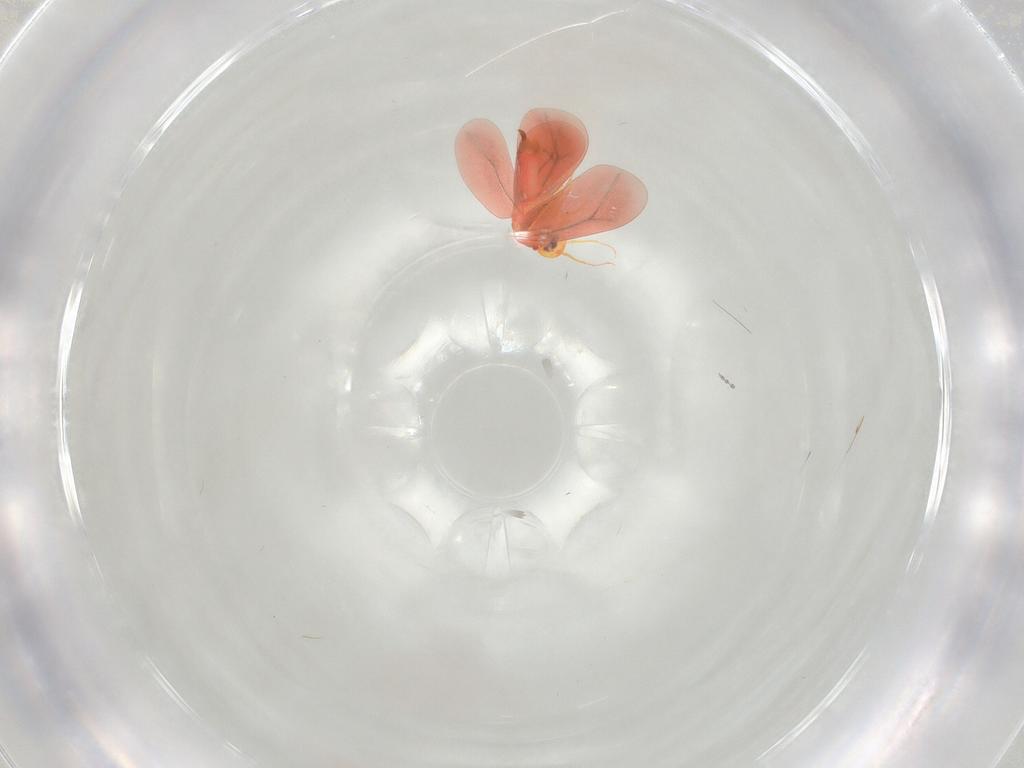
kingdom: Animalia
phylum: Arthropoda
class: Insecta
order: Hemiptera
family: Aleyrodidae
